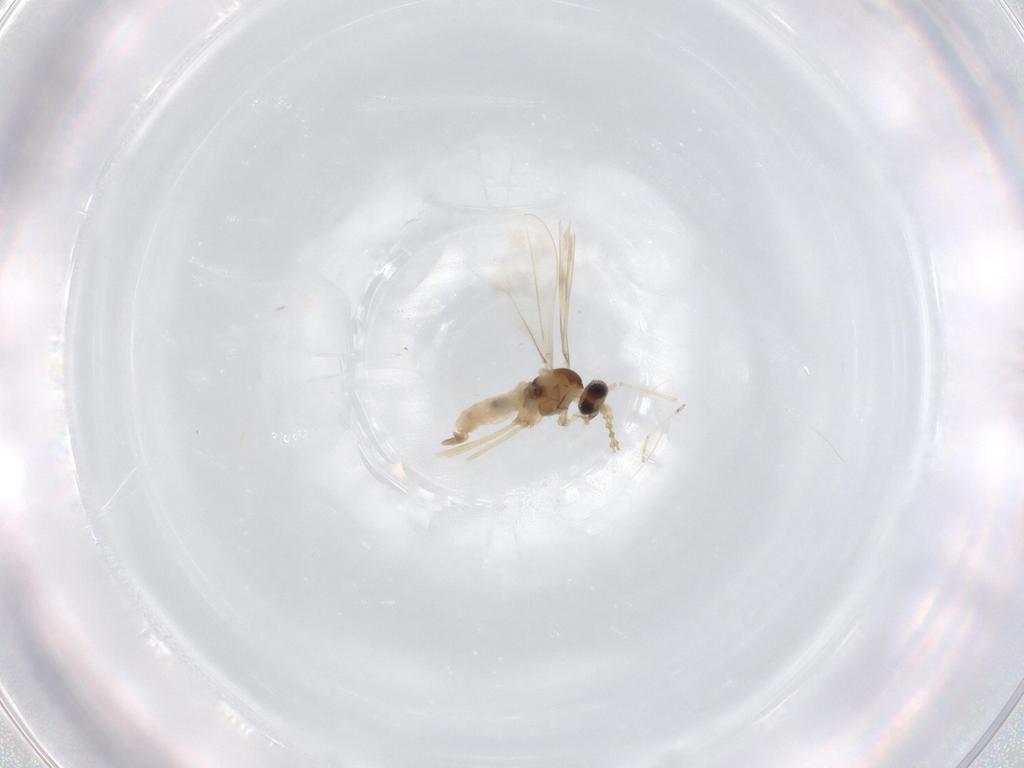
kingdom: Animalia
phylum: Arthropoda
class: Insecta
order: Diptera
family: Cecidomyiidae
